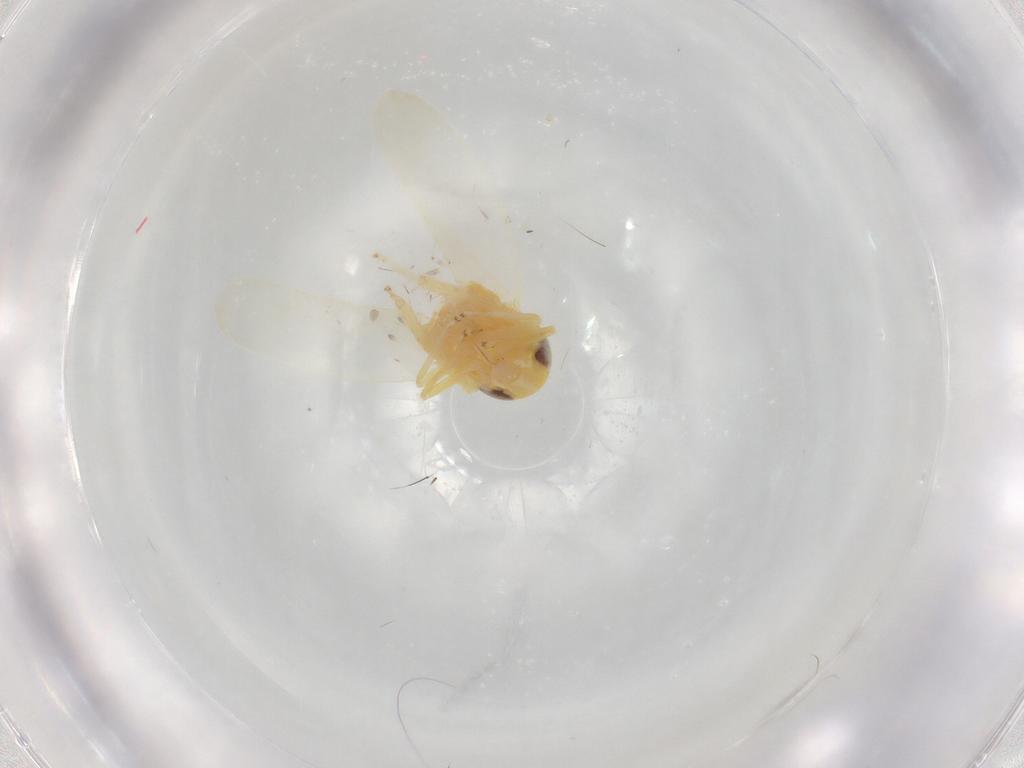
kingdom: Animalia
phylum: Arthropoda
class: Insecta
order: Hemiptera
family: Cicadellidae
